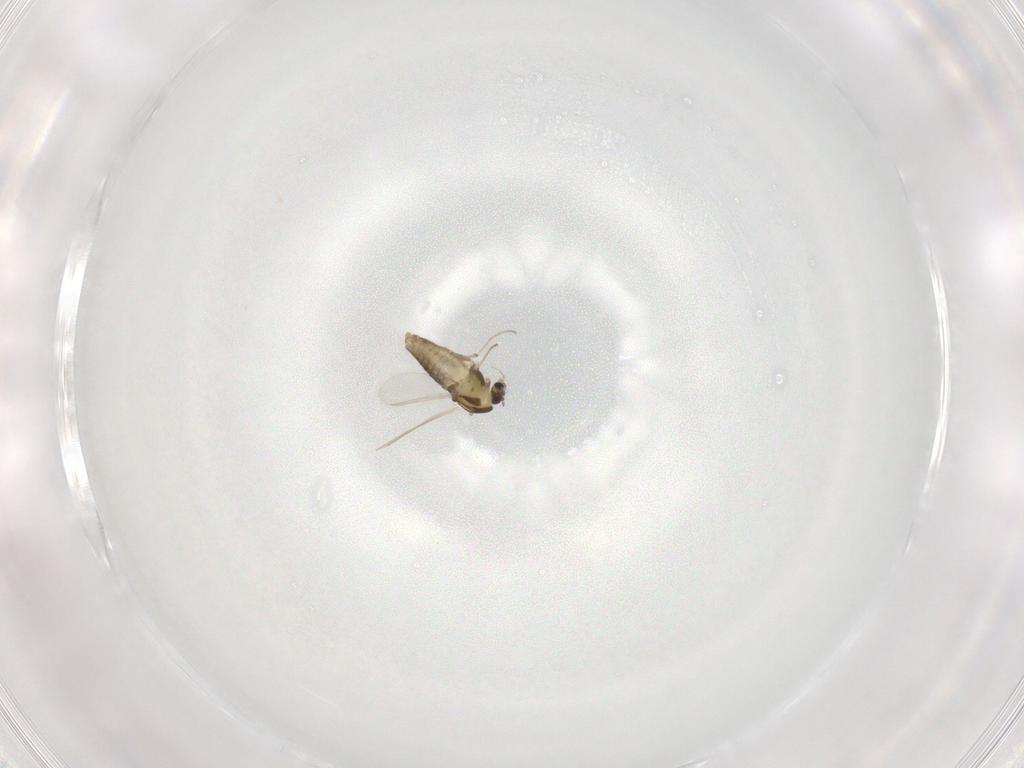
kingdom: Animalia
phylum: Arthropoda
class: Insecta
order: Diptera
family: Chironomidae
